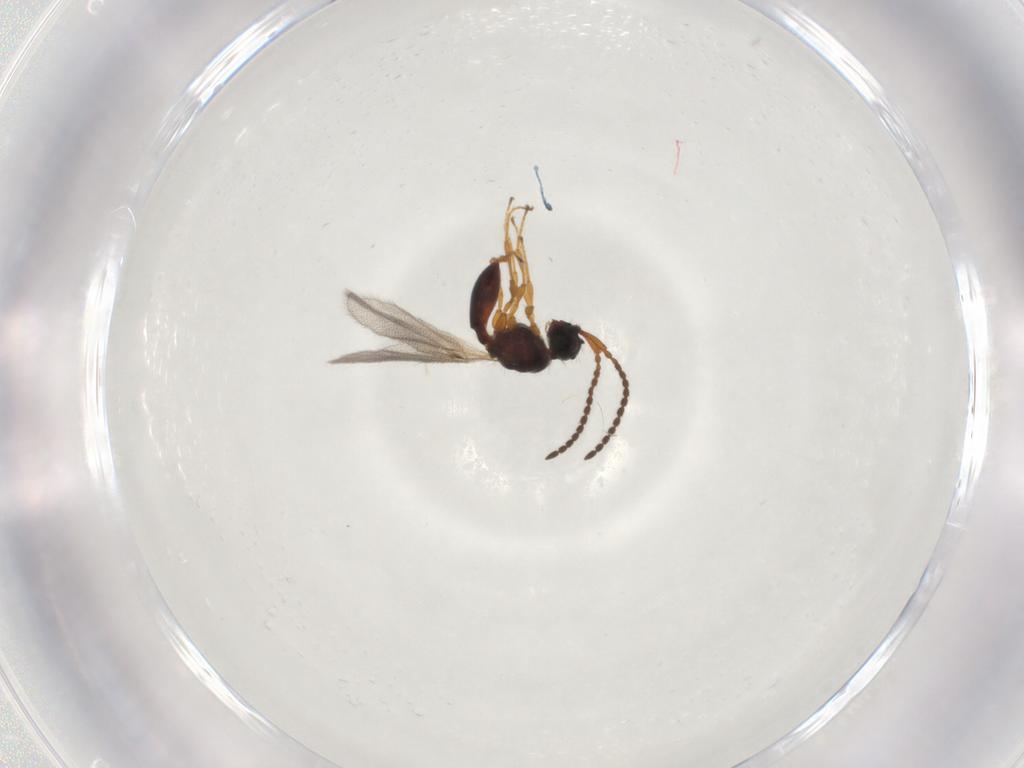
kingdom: Animalia
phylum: Arthropoda
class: Insecta
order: Hymenoptera
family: Diapriidae
